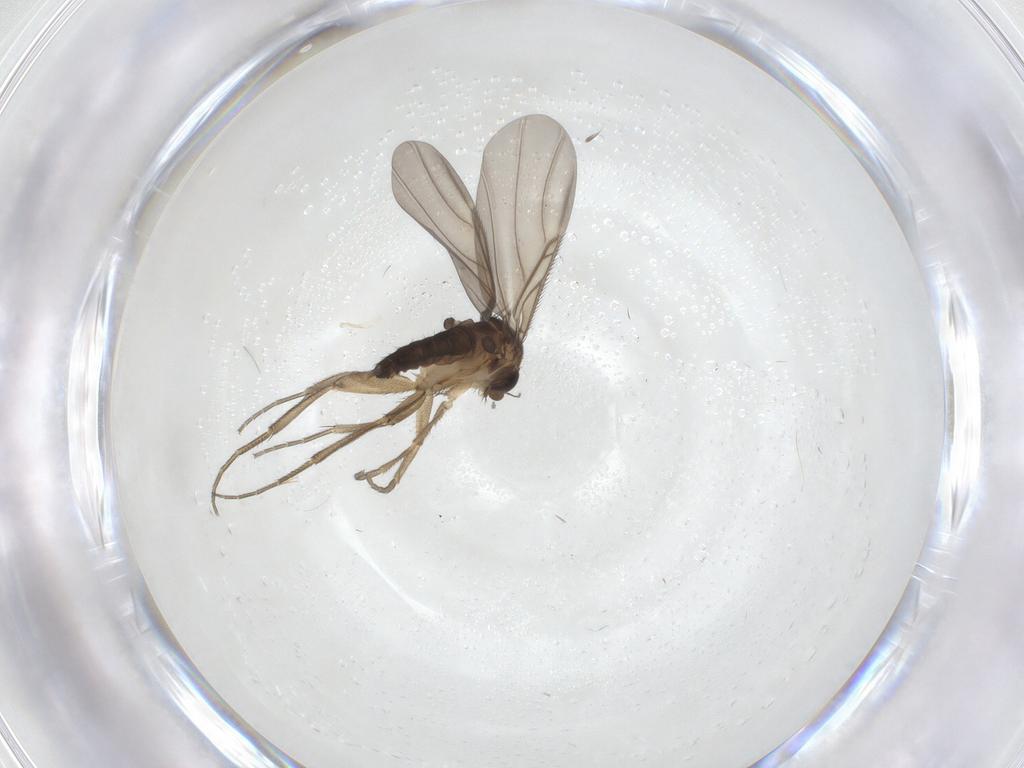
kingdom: Animalia
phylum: Arthropoda
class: Insecta
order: Diptera
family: Phoridae
